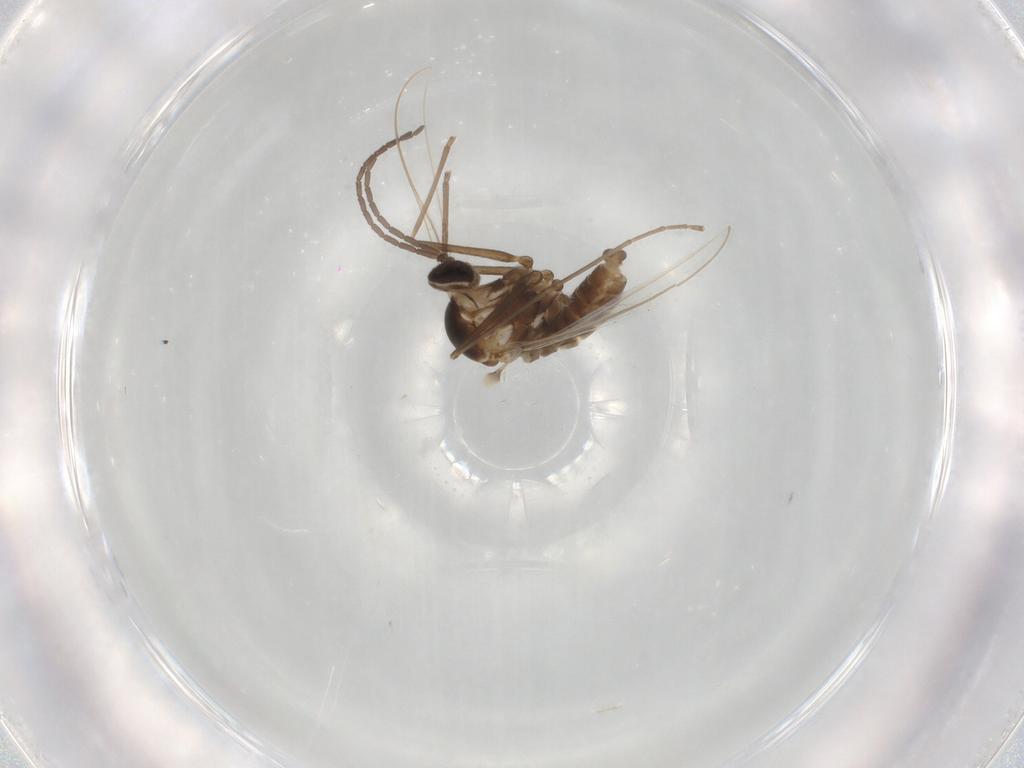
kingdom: Animalia
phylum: Arthropoda
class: Insecta
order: Diptera
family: Cecidomyiidae
